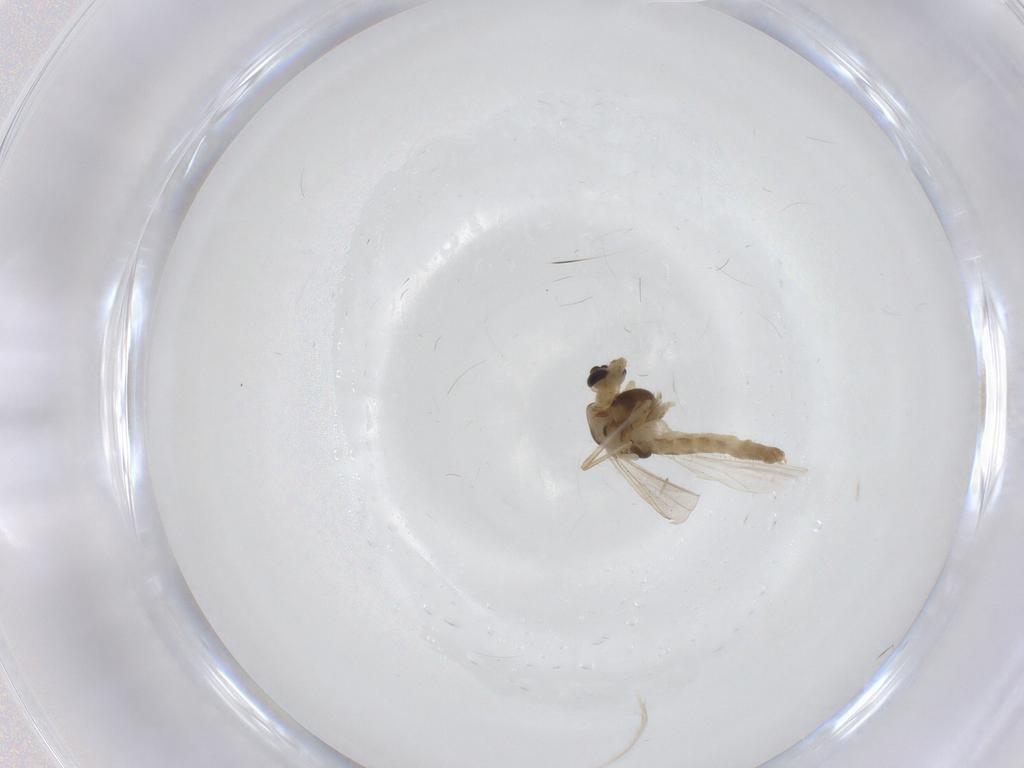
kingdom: Animalia
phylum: Arthropoda
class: Insecta
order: Diptera
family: Chironomidae
